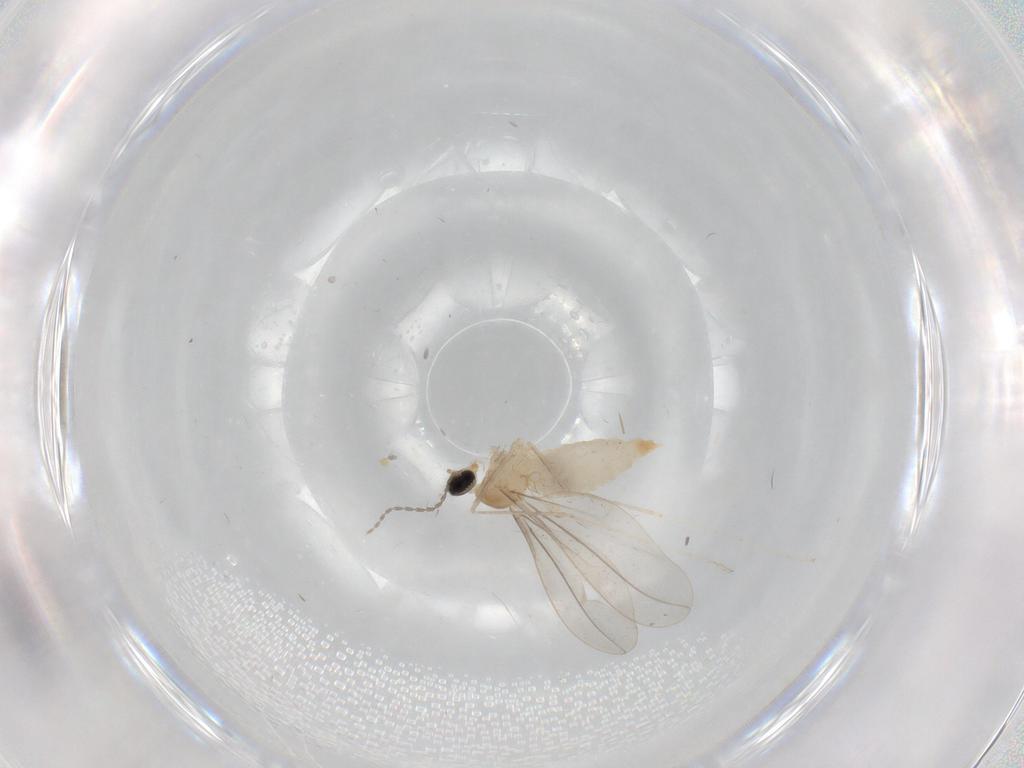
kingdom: Animalia
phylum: Arthropoda
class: Insecta
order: Diptera
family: Cecidomyiidae
